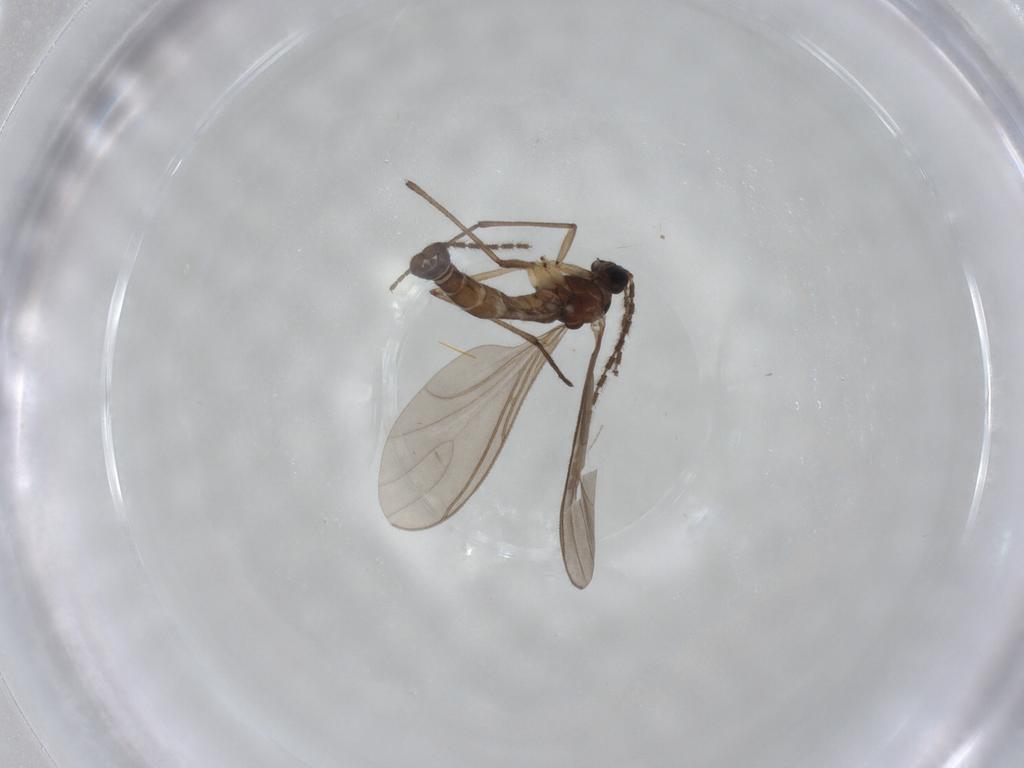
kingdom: Animalia
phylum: Arthropoda
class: Insecta
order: Diptera
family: Sciaridae
